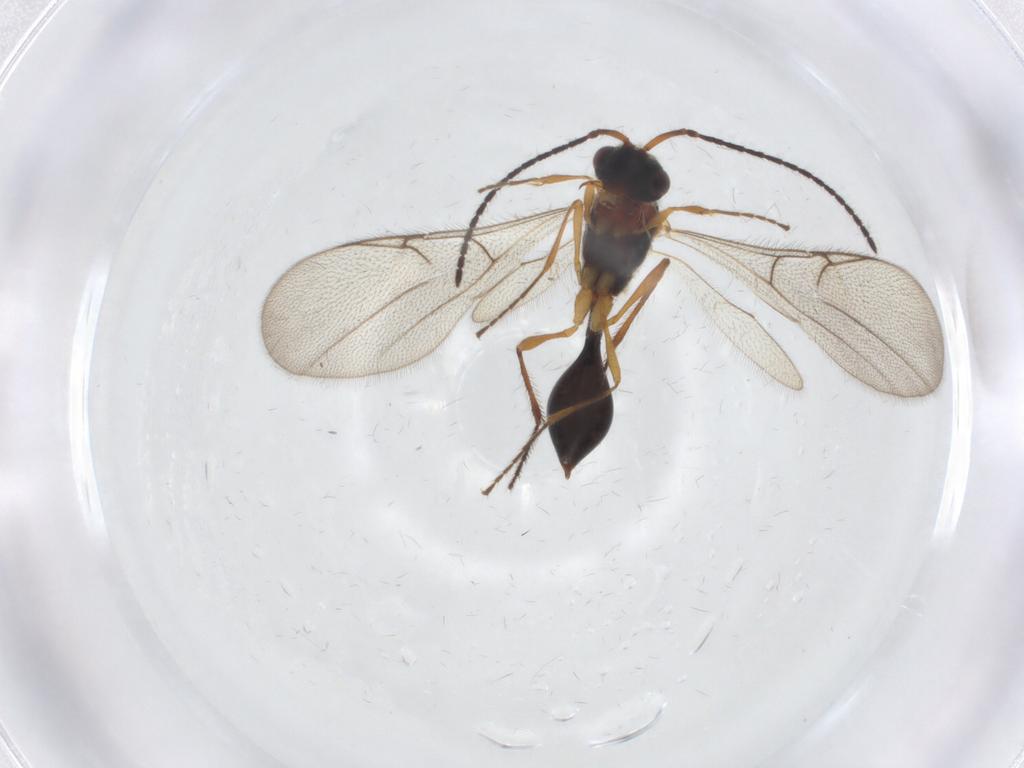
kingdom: Animalia
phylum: Arthropoda
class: Insecta
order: Hymenoptera
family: Diapriidae
